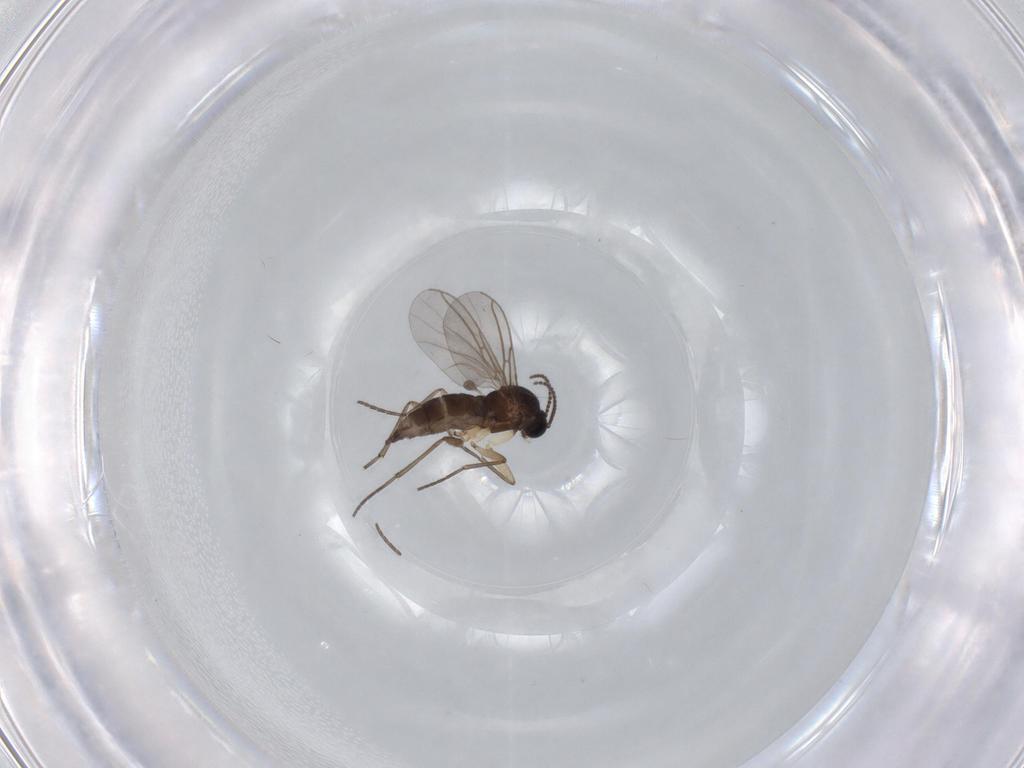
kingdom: Animalia
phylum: Arthropoda
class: Insecta
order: Diptera
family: Sciaridae
